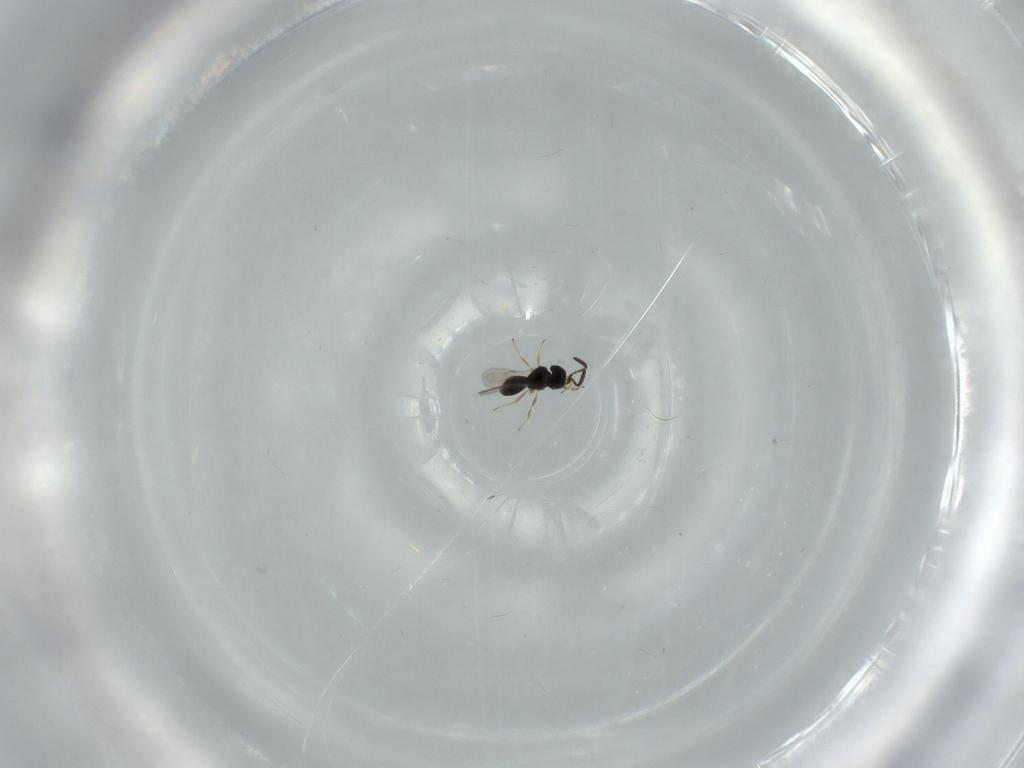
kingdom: Animalia
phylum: Arthropoda
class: Insecta
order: Hymenoptera
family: Scelionidae
